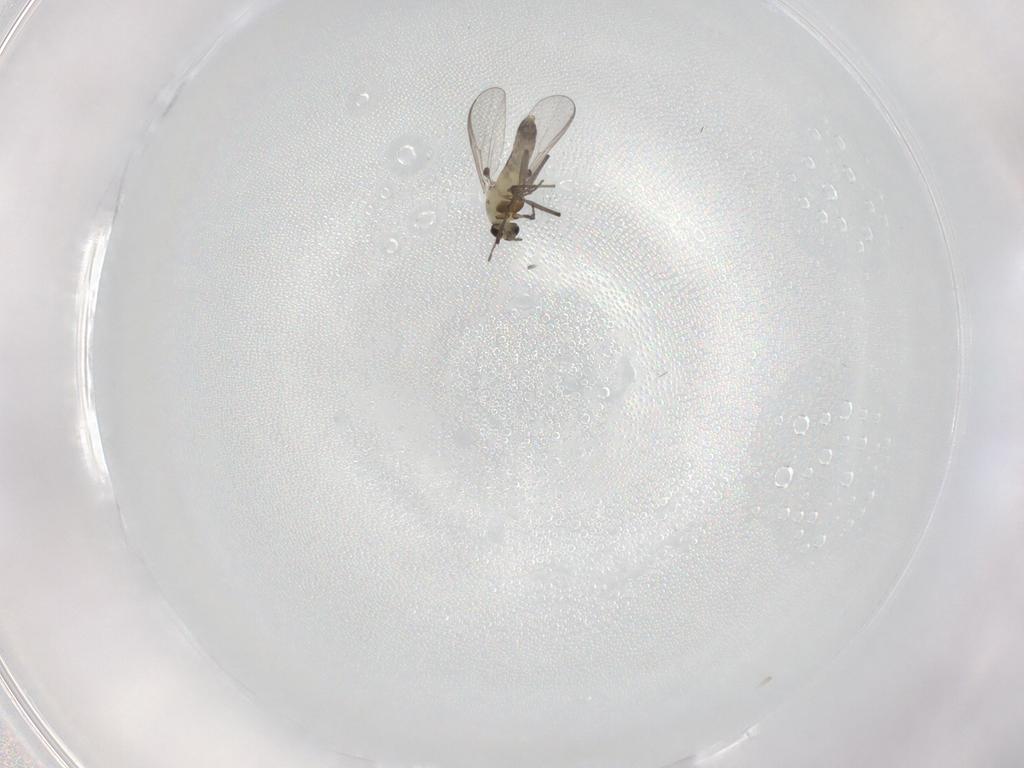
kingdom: Animalia
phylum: Arthropoda
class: Insecta
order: Diptera
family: Chironomidae
